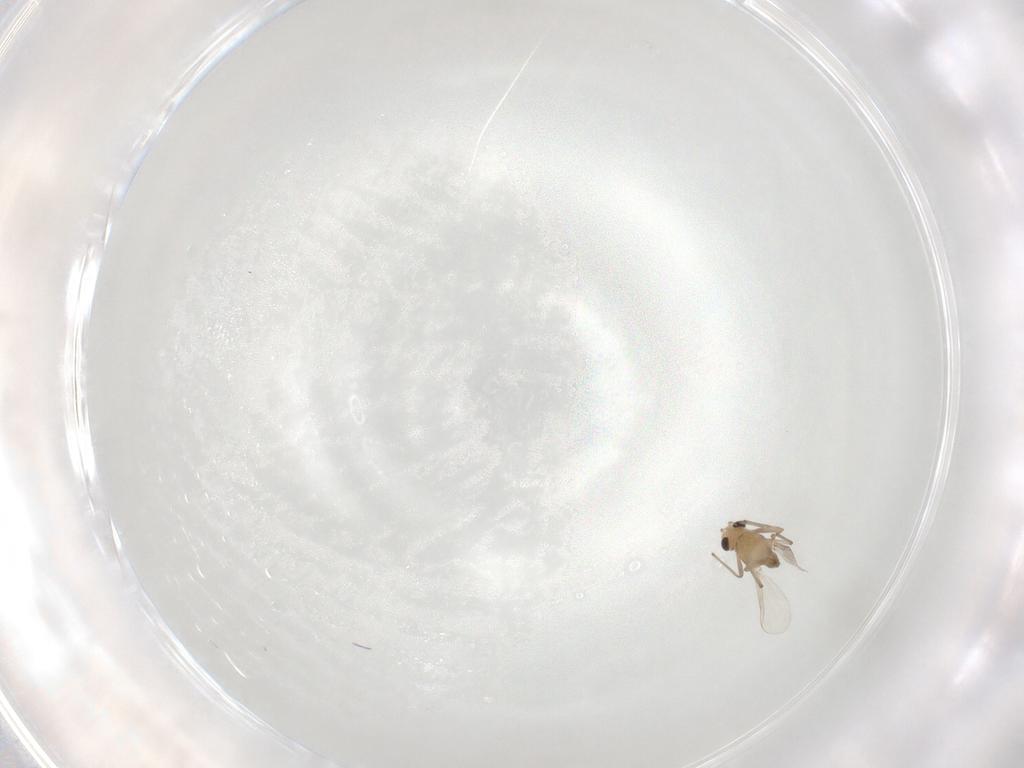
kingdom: Animalia
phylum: Arthropoda
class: Insecta
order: Diptera
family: Chironomidae
